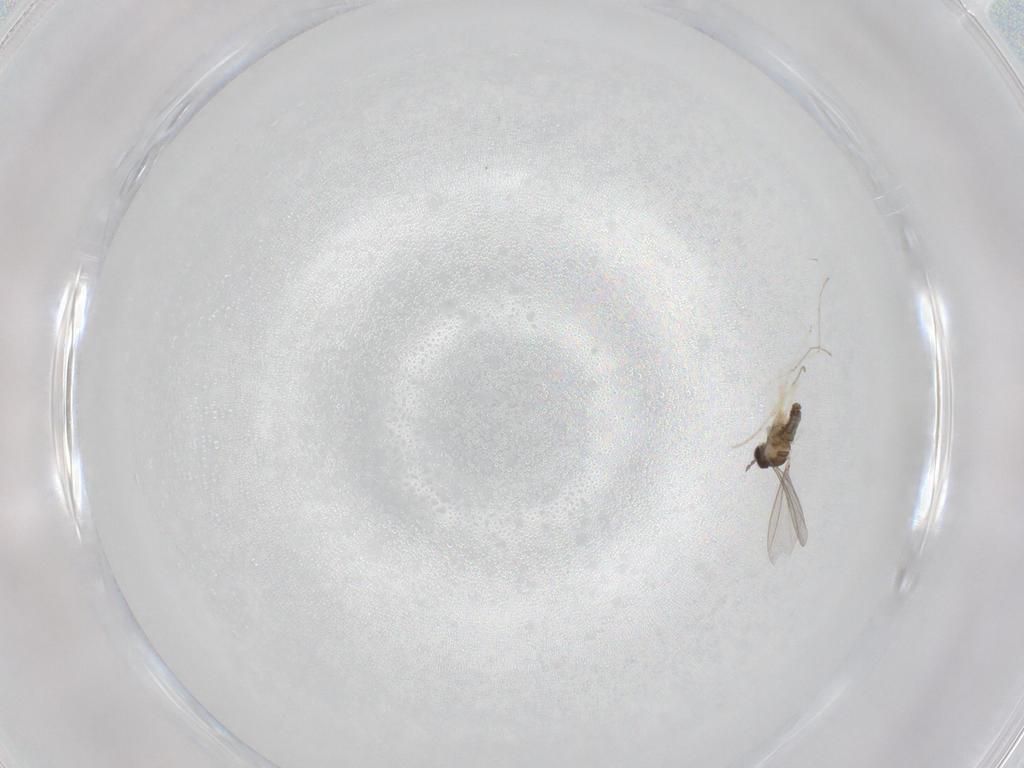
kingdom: Animalia
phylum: Arthropoda
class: Insecta
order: Diptera
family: Cecidomyiidae
